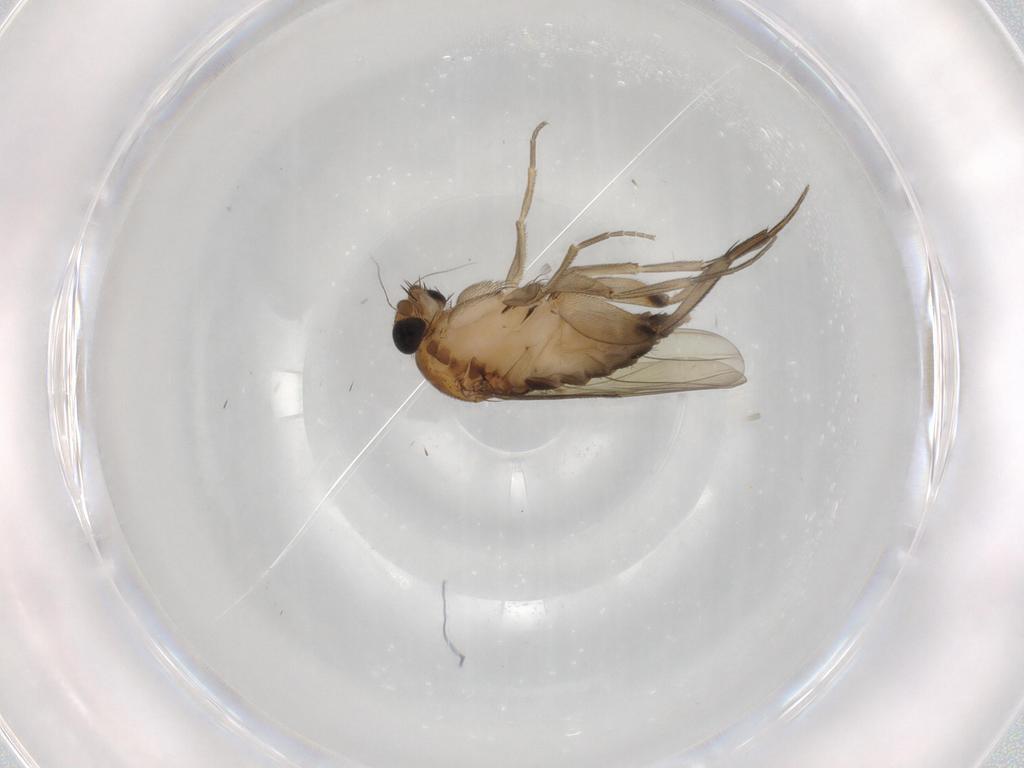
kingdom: Animalia
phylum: Arthropoda
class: Insecta
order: Diptera
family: Phoridae
